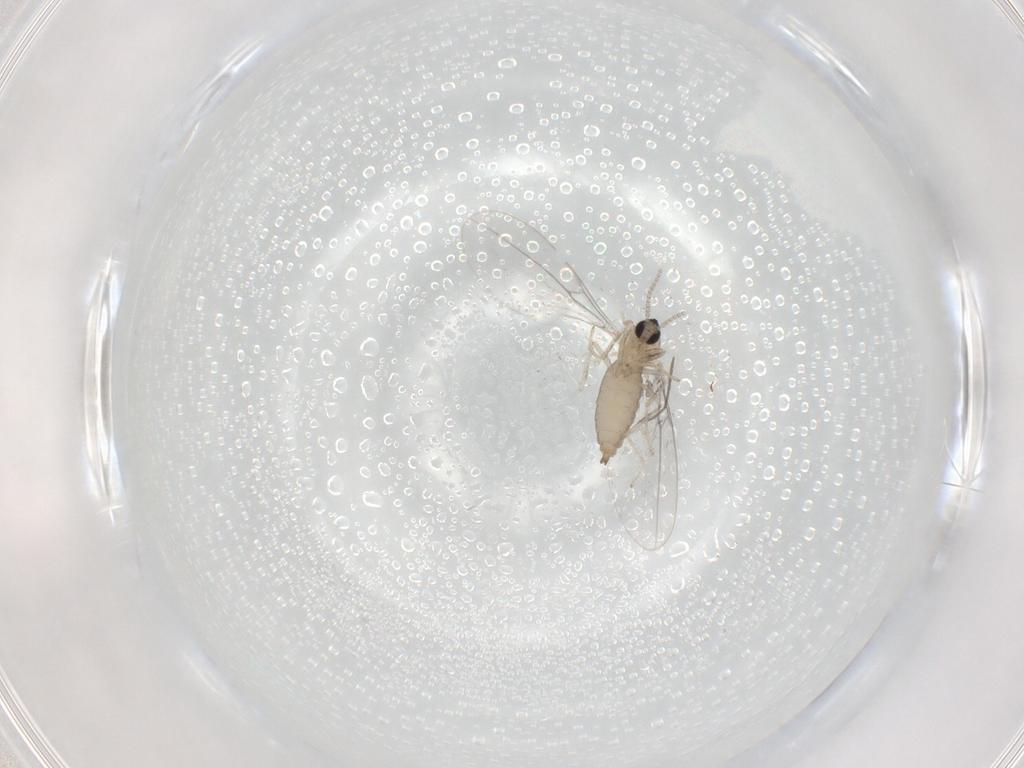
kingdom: Animalia
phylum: Arthropoda
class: Insecta
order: Diptera
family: Cecidomyiidae
